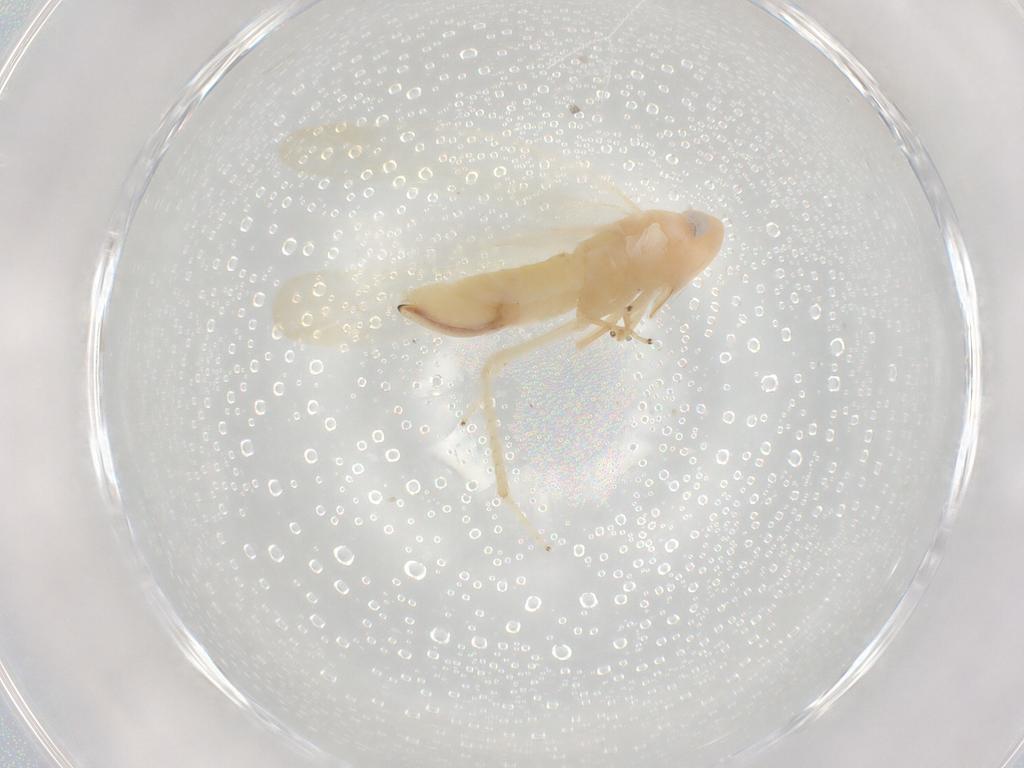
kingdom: Animalia
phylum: Arthropoda
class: Insecta
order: Hemiptera
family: Cicadellidae
